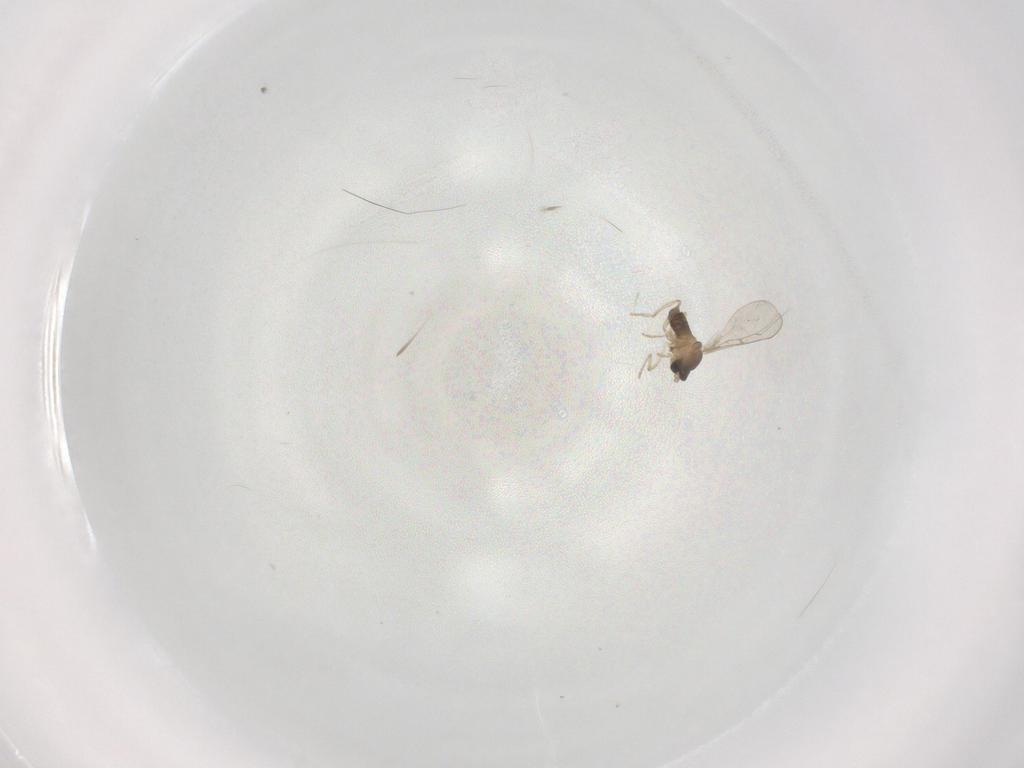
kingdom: Animalia
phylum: Arthropoda
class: Insecta
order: Diptera
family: Cecidomyiidae
